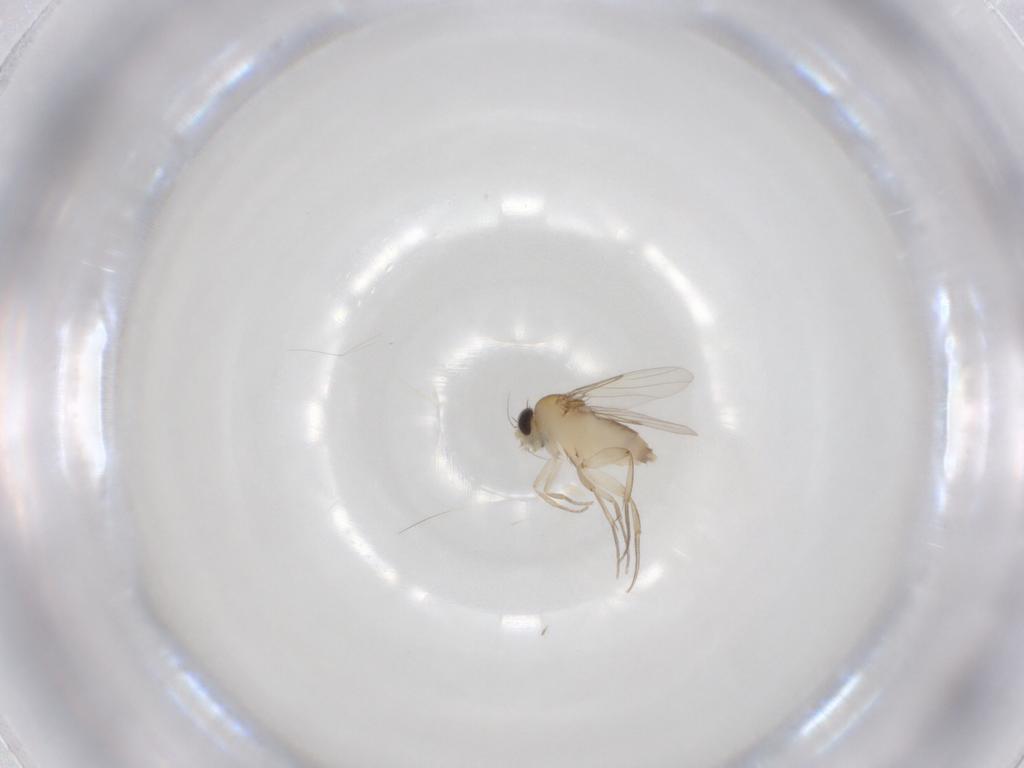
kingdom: Animalia
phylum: Arthropoda
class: Insecta
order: Diptera
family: Phoridae
